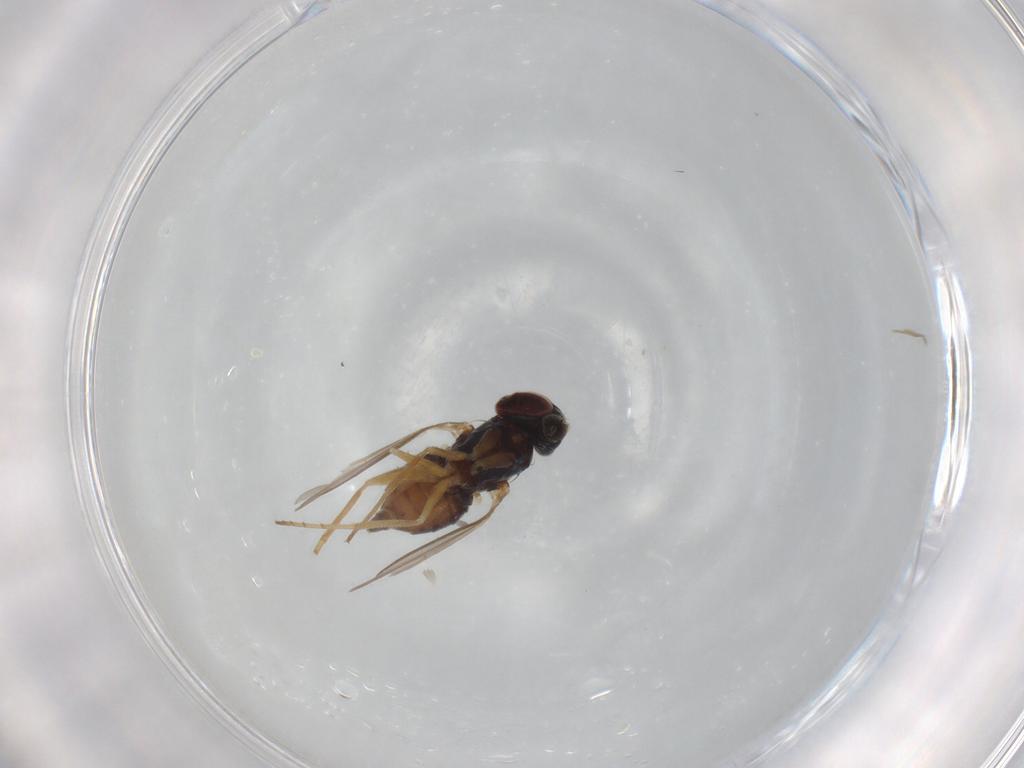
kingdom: Animalia
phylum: Arthropoda
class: Insecta
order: Diptera
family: Dolichopodidae
